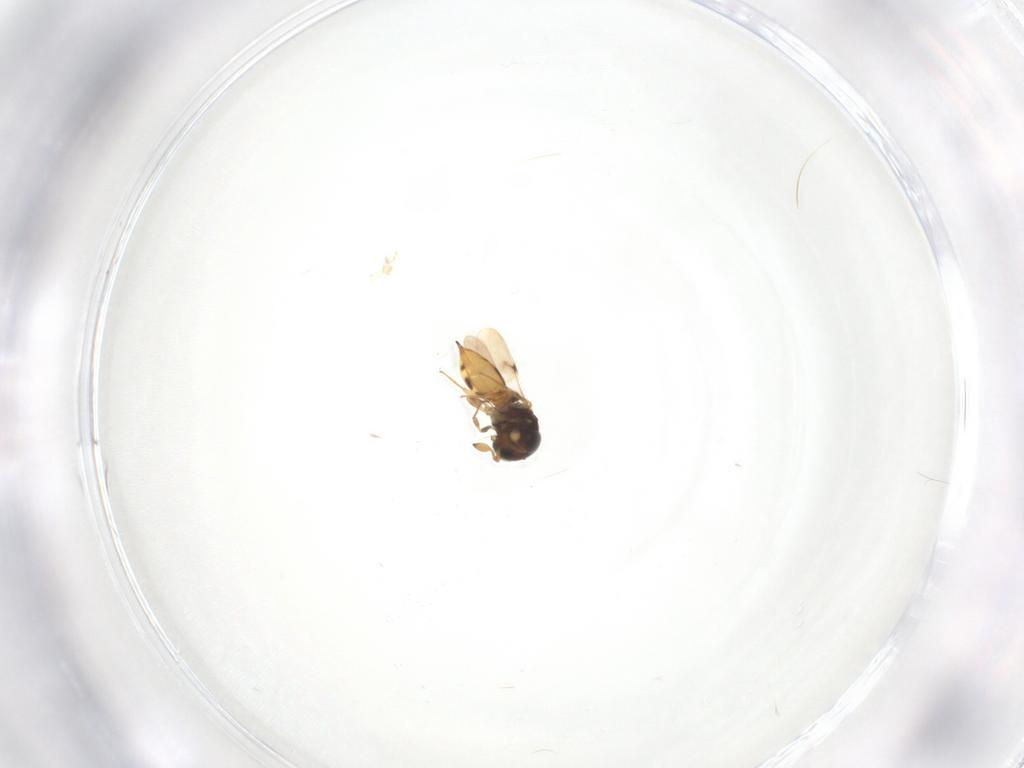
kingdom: Animalia
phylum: Arthropoda
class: Insecta
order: Hymenoptera
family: Scelionidae
